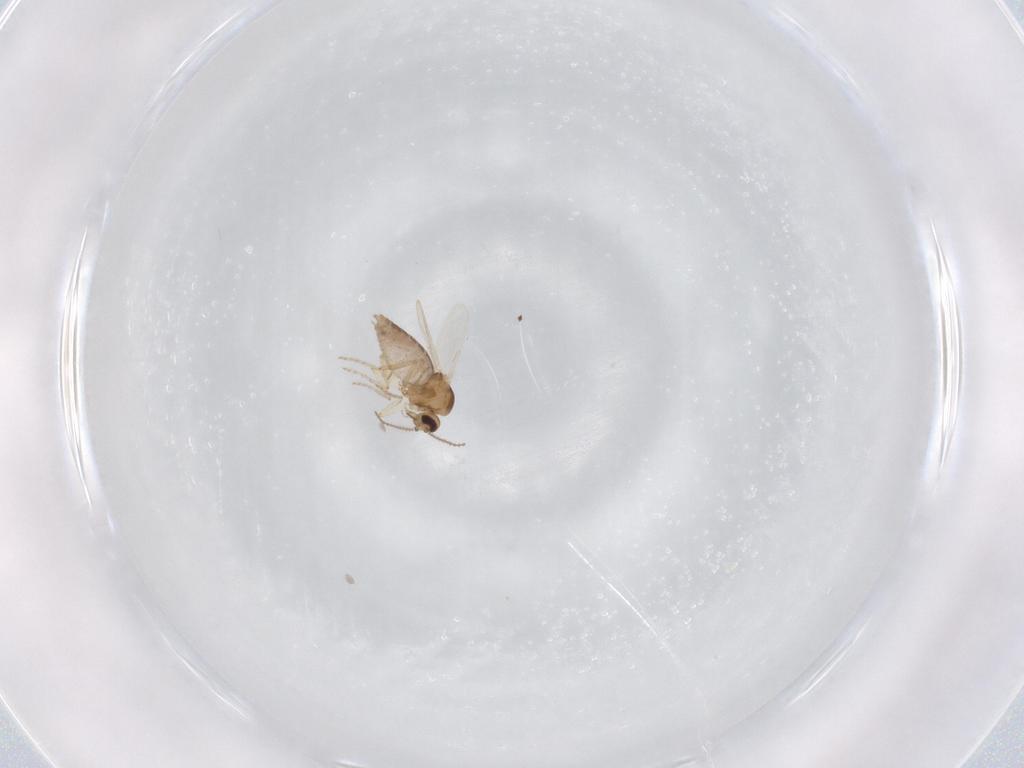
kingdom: Animalia
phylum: Arthropoda
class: Insecta
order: Diptera
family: Ceratopogonidae
